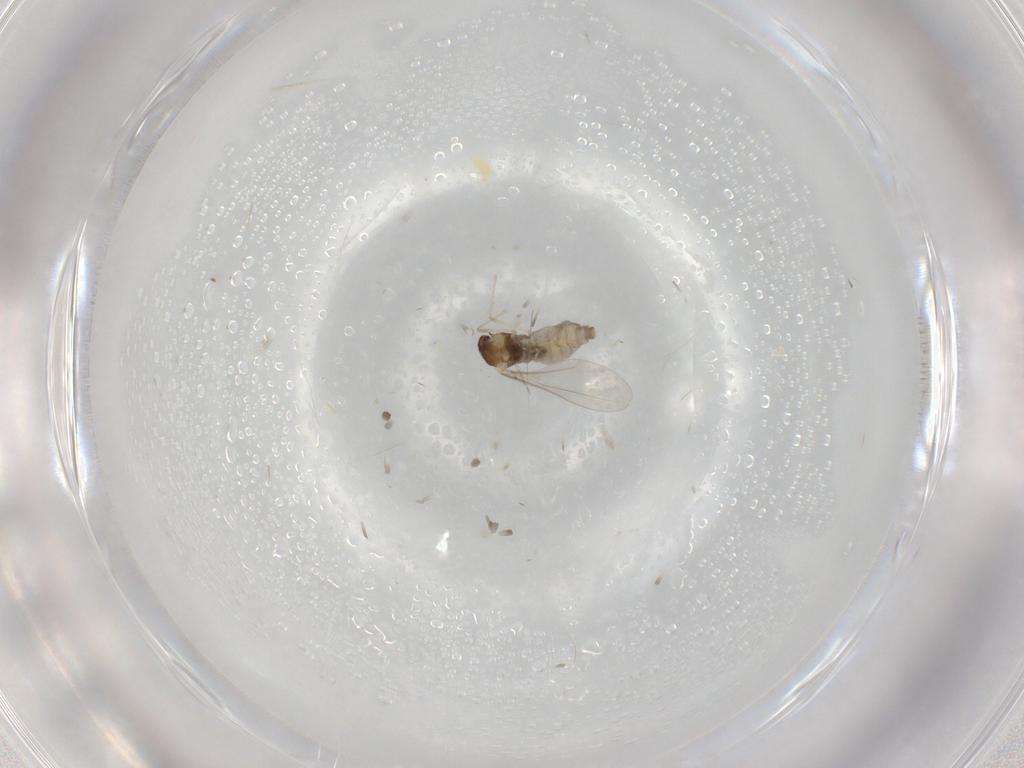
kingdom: Animalia
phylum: Arthropoda
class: Insecta
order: Diptera
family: Cecidomyiidae
